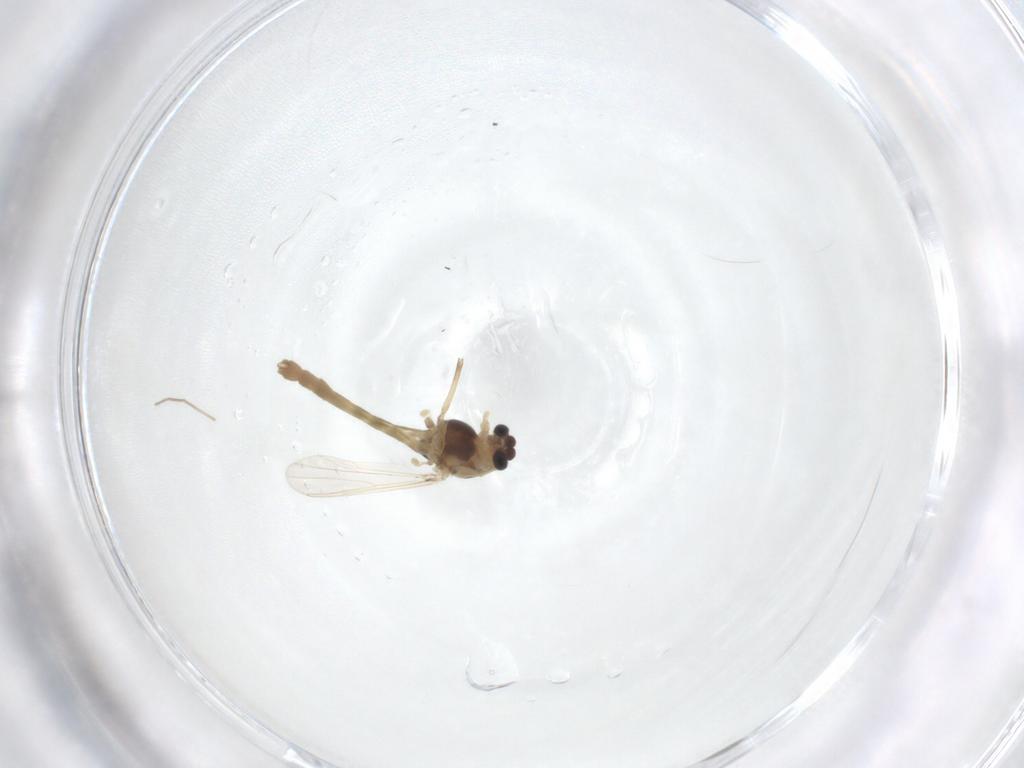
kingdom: Animalia
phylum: Arthropoda
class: Insecta
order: Diptera
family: Chironomidae
